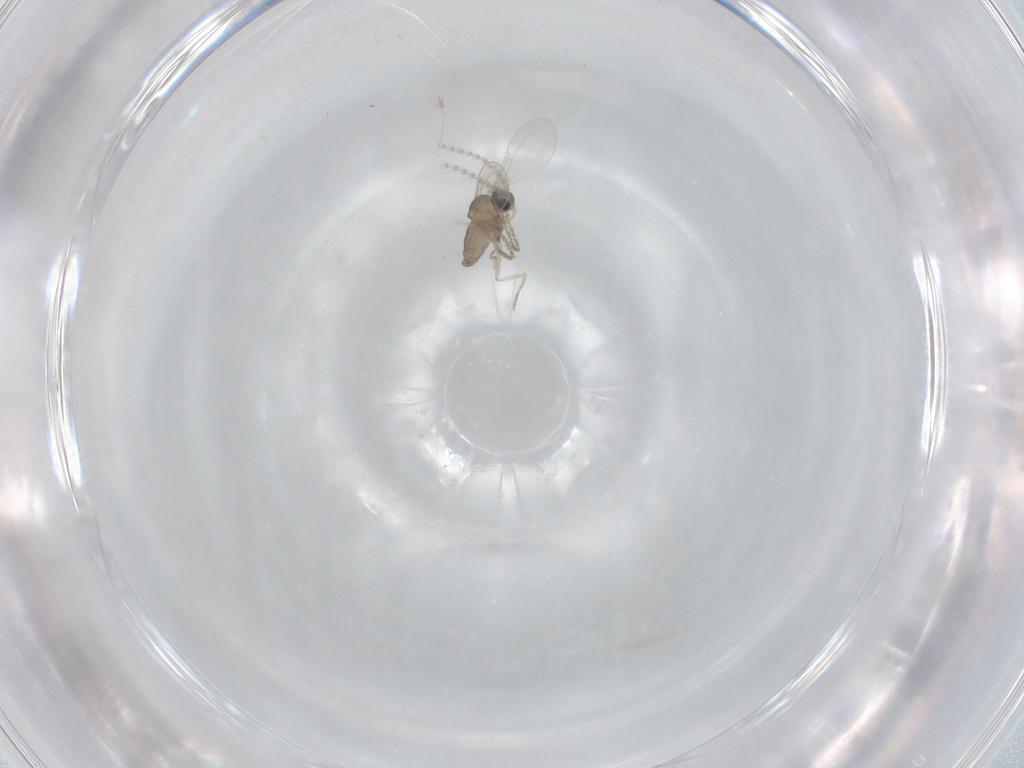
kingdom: Animalia
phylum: Arthropoda
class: Insecta
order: Diptera
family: Cecidomyiidae
